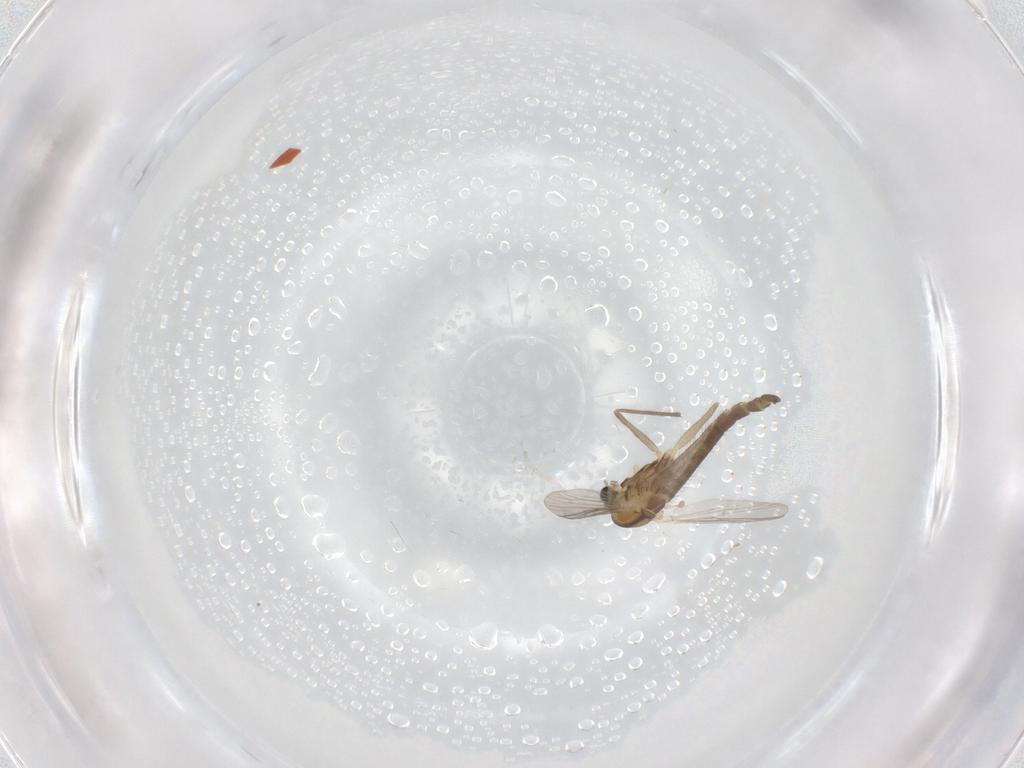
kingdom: Animalia
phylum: Arthropoda
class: Insecta
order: Diptera
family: Chironomidae
